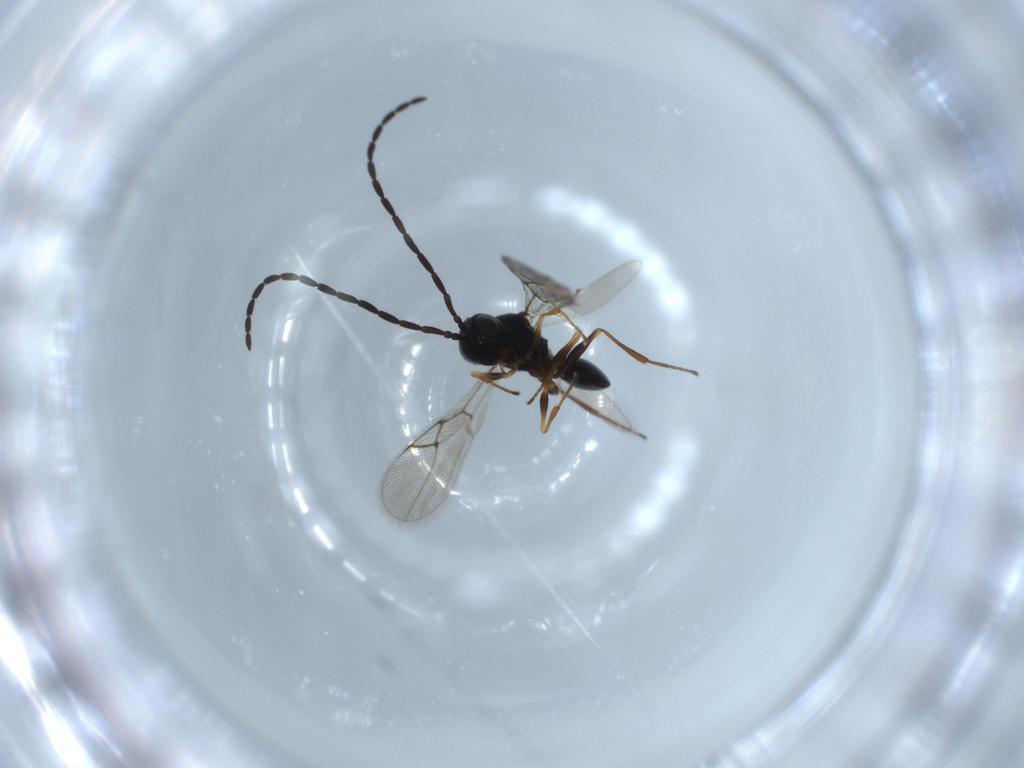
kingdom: Animalia
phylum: Arthropoda
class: Insecta
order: Hymenoptera
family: Figitidae
